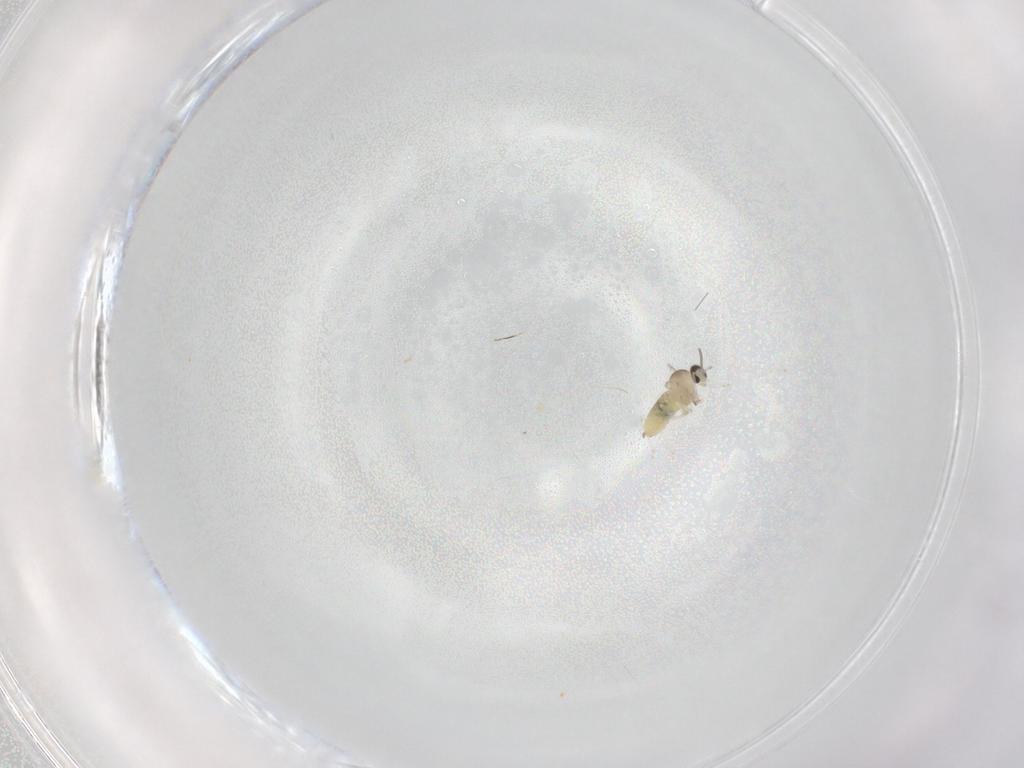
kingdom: Animalia
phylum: Arthropoda
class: Insecta
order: Diptera
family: Cecidomyiidae
